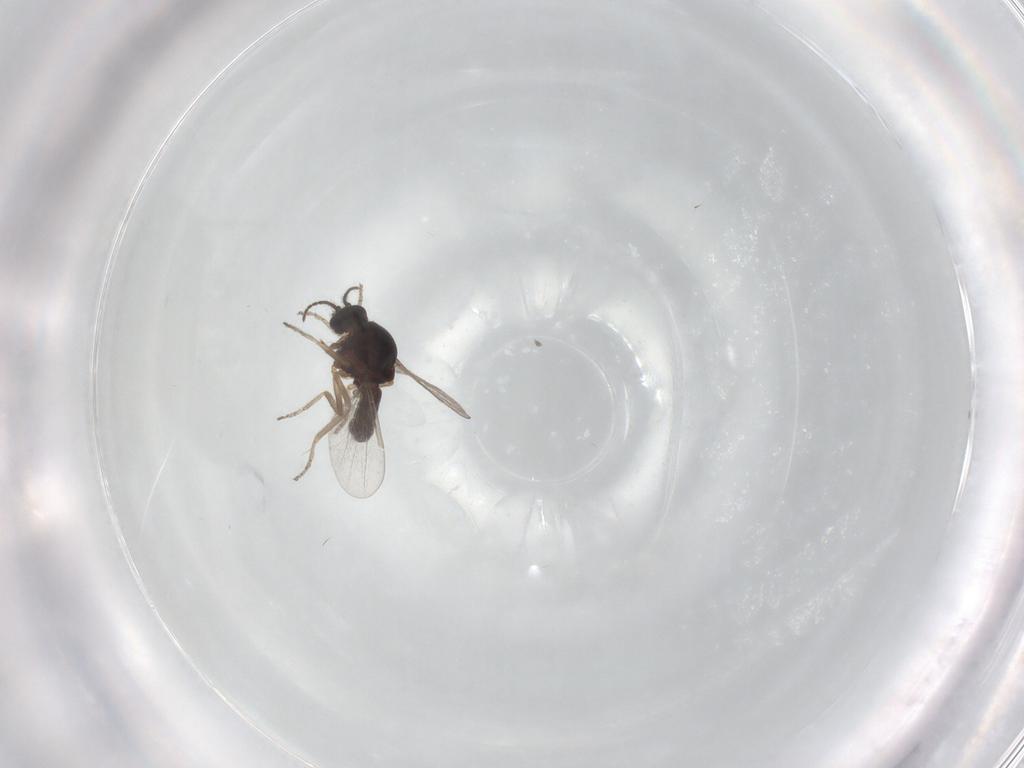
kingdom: Animalia
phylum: Arthropoda
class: Insecta
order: Diptera
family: Ceratopogonidae
